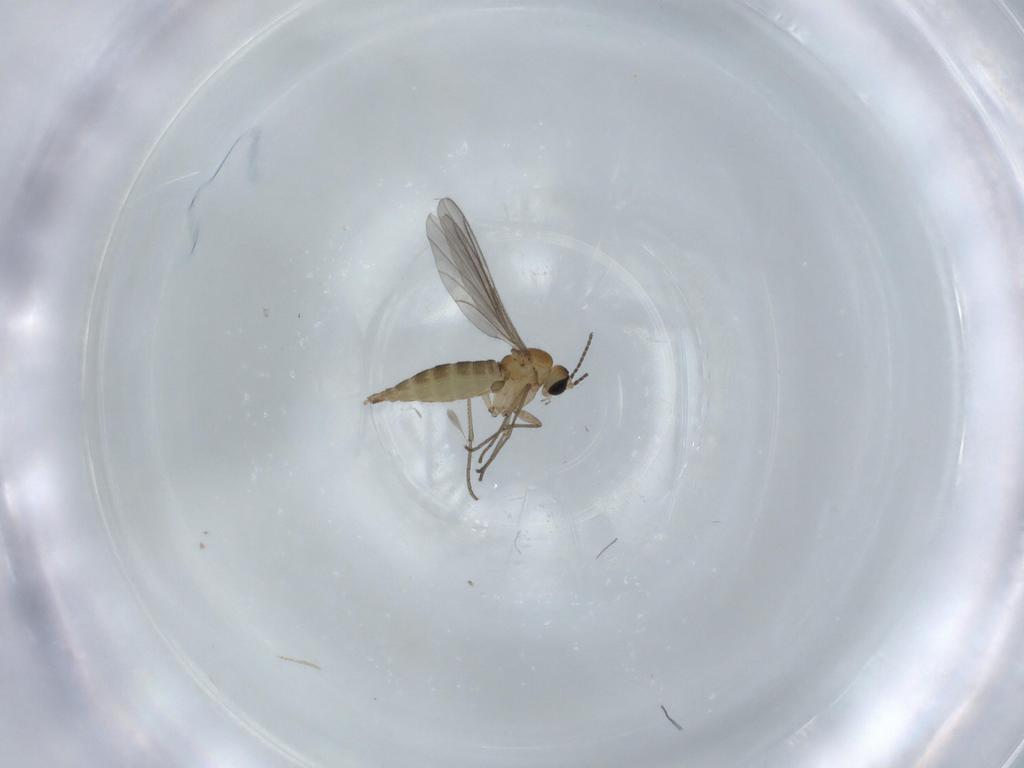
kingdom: Animalia
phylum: Arthropoda
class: Insecta
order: Diptera
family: Sciaridae
